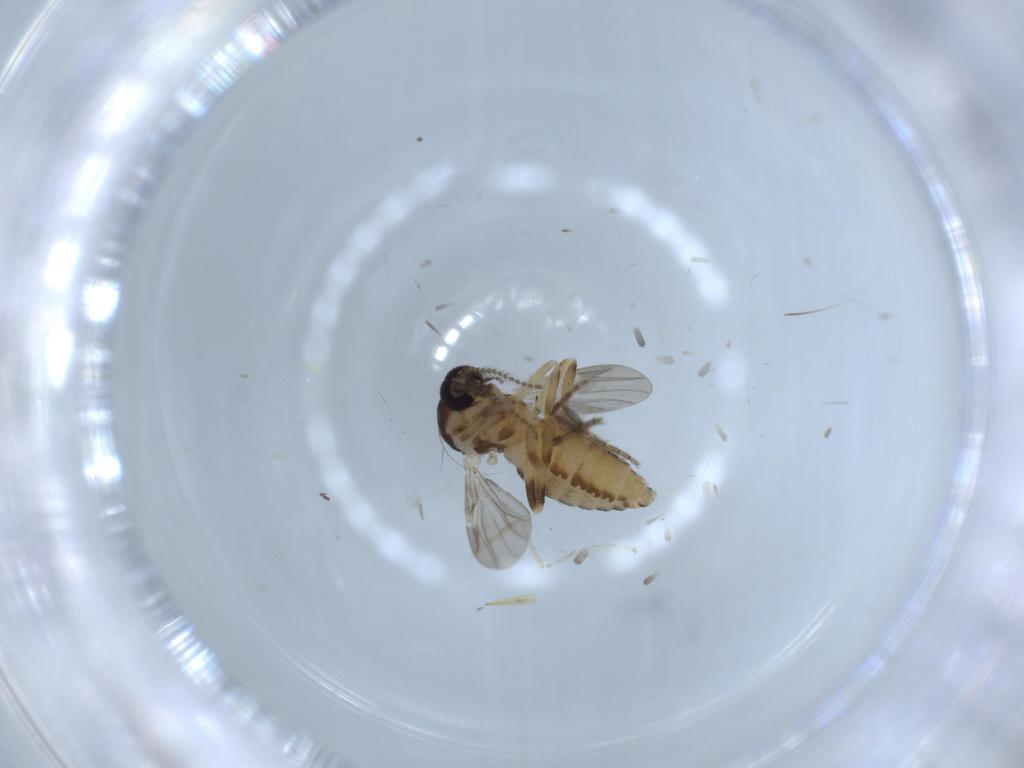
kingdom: Animalia
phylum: Arthropoda
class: Insecta
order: Diptera
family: Ceratopogonidae
